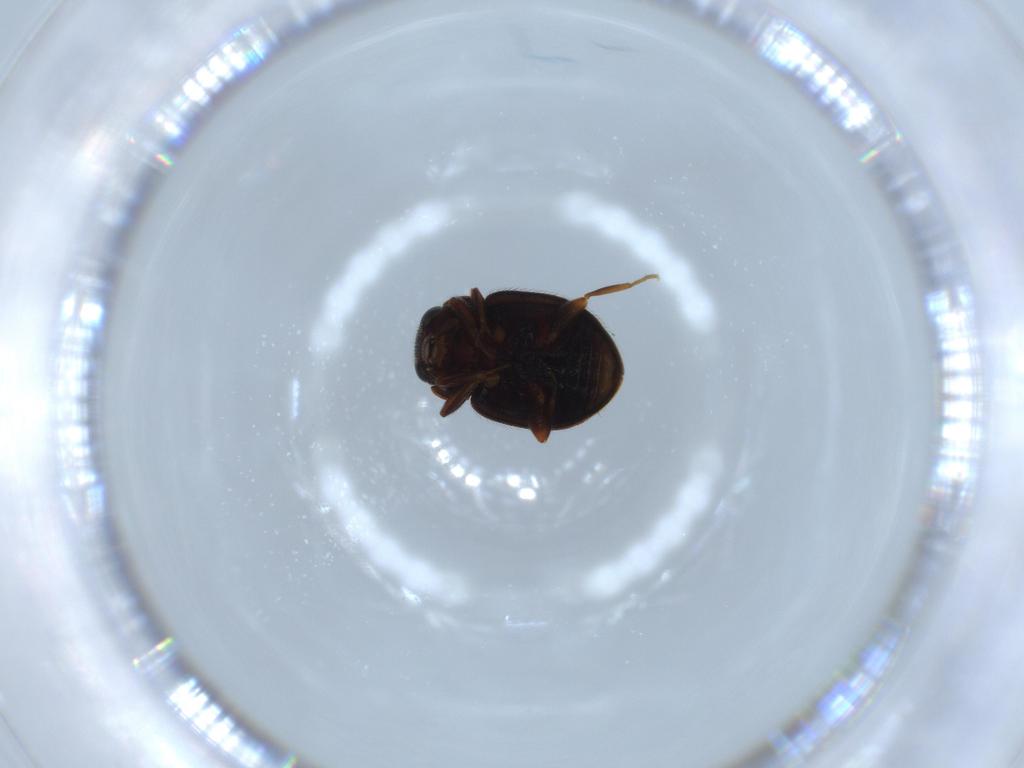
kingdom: Animalia
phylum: Arthropoda
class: Insecta
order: Coleoptera
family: Coccinellidae
